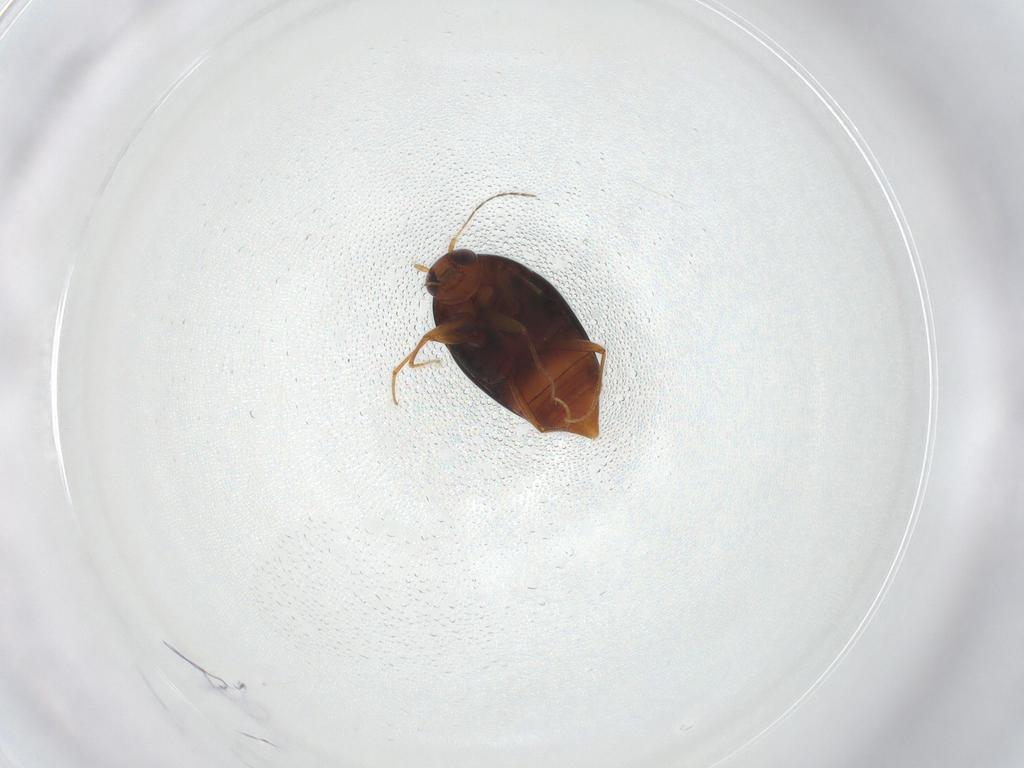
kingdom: Animalia
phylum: Arthropoda
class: Insecta
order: Coleoptera
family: Staphylinidae
